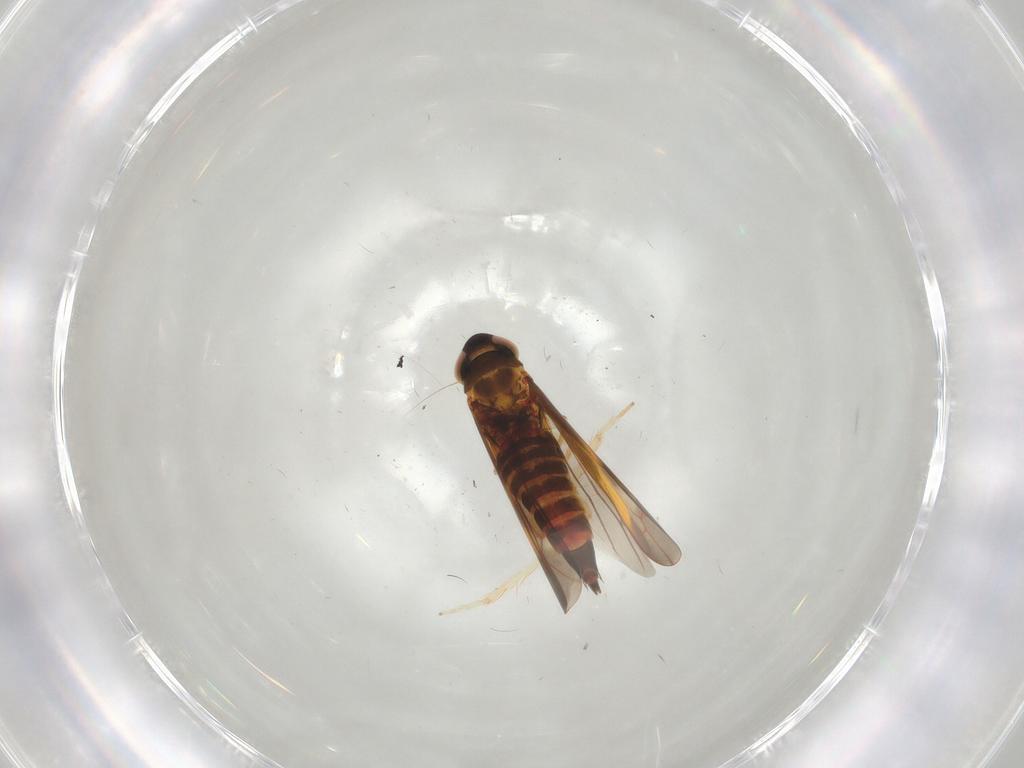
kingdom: Animalia
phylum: Arthropoda
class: Insecta
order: Hemiptera
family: Cicadellidae
